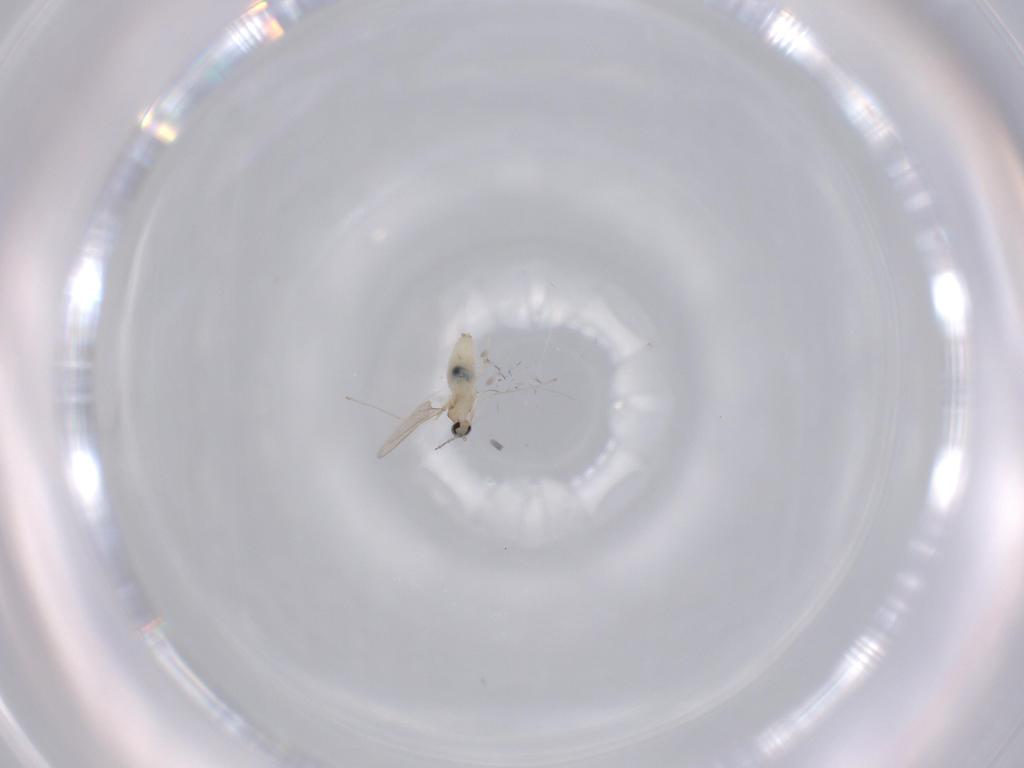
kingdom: Animalia
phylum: Arthropoda
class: Insecta
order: Diptera
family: Cecidomyiidae
